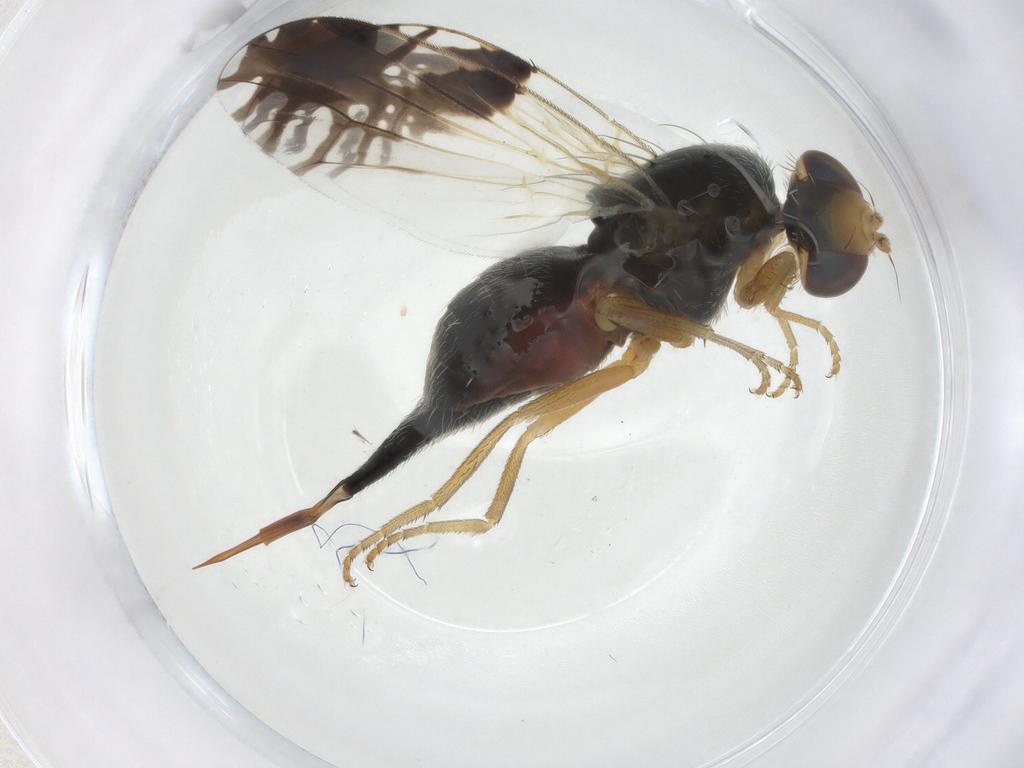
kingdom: Animalia
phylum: Arthropoda
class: Insecta
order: Diptera
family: Tephritidae
